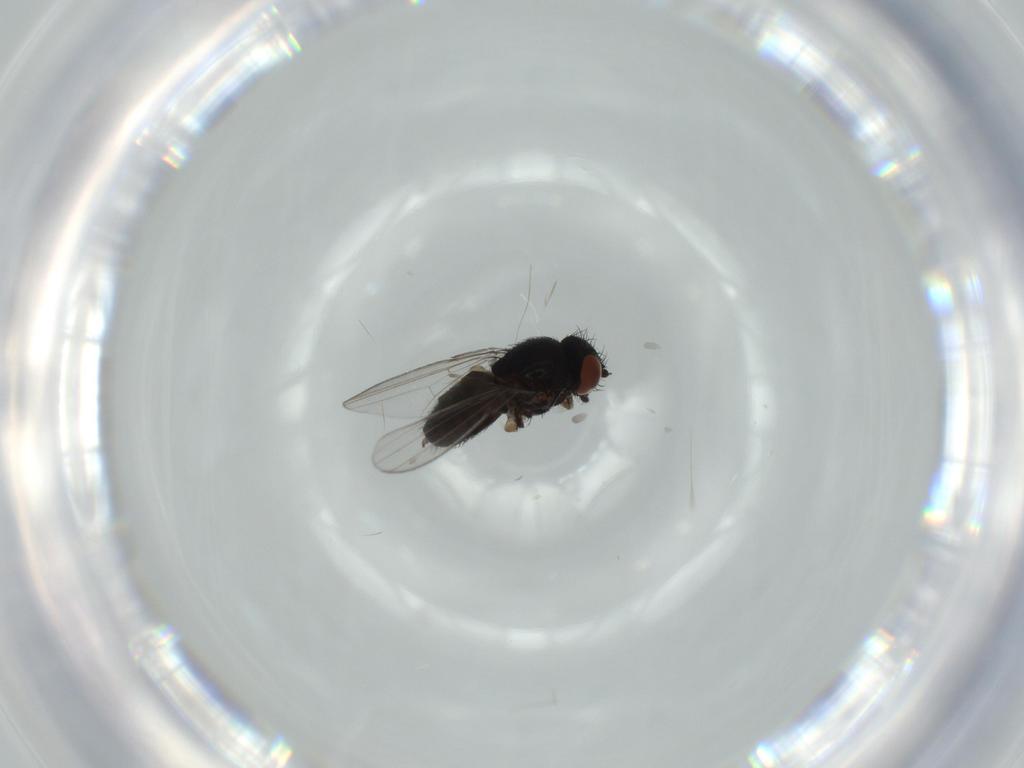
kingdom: Animalia
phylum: Arthropoda
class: Insecta
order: Diptera
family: Milichiidae
